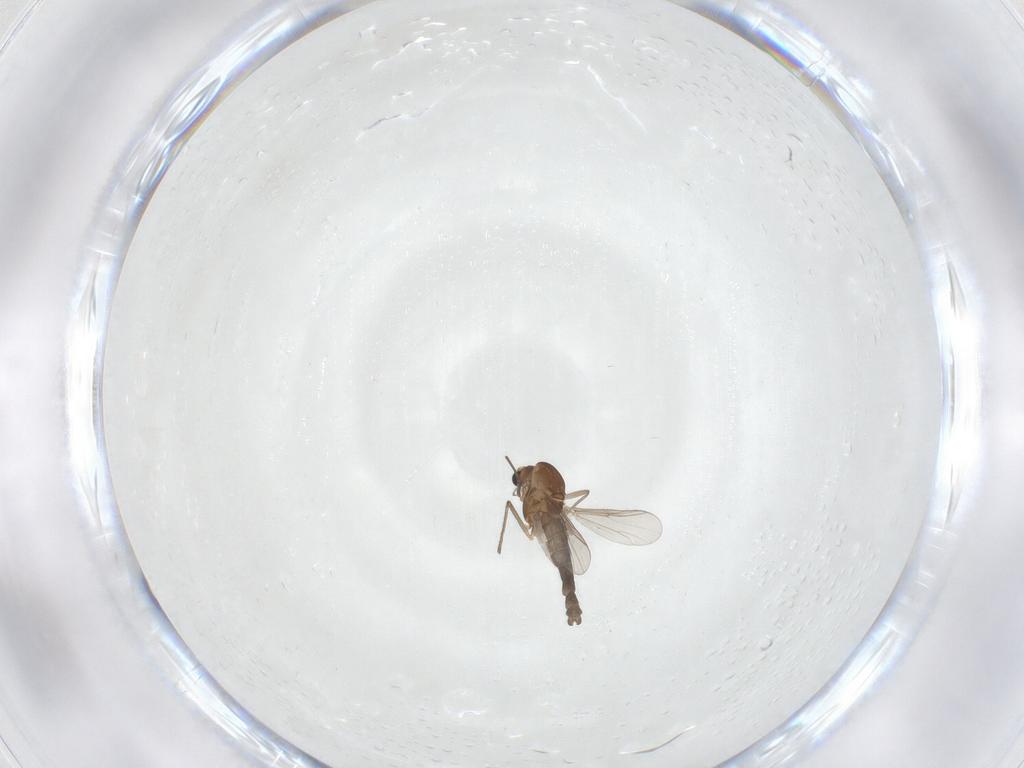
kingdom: Animalia
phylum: Arthropoda
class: Insecta
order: Diptera
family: Chironomidae
